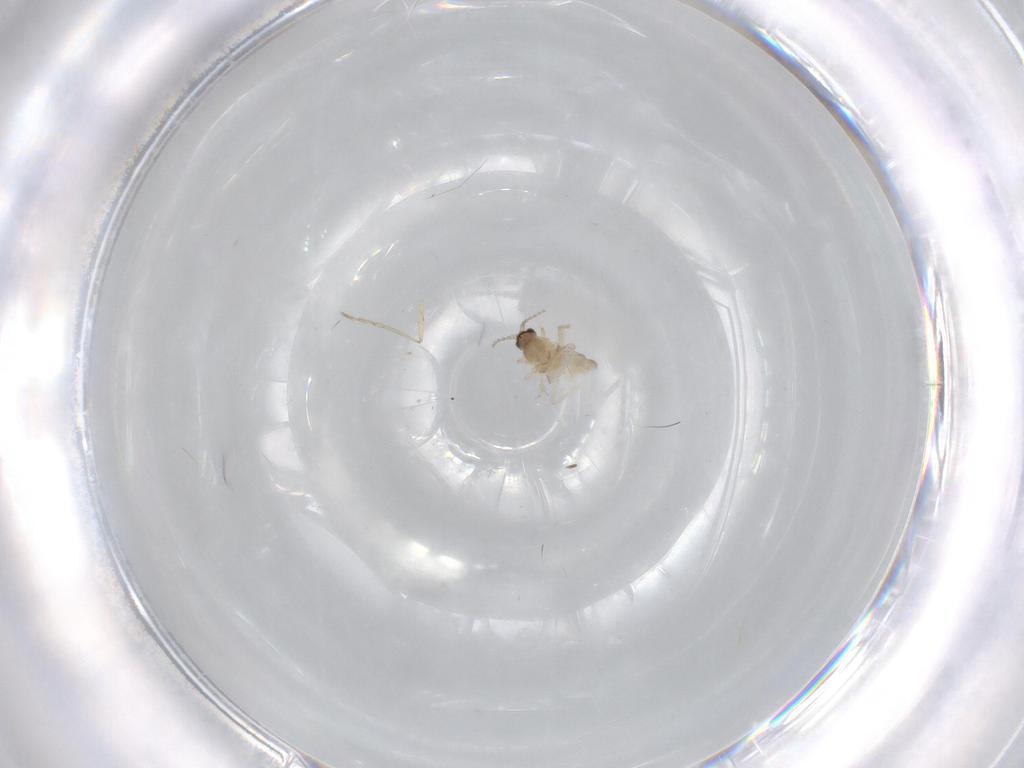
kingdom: Animalia
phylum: Arthropoda
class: Insecta
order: Diptera
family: Cecidomyiidae
